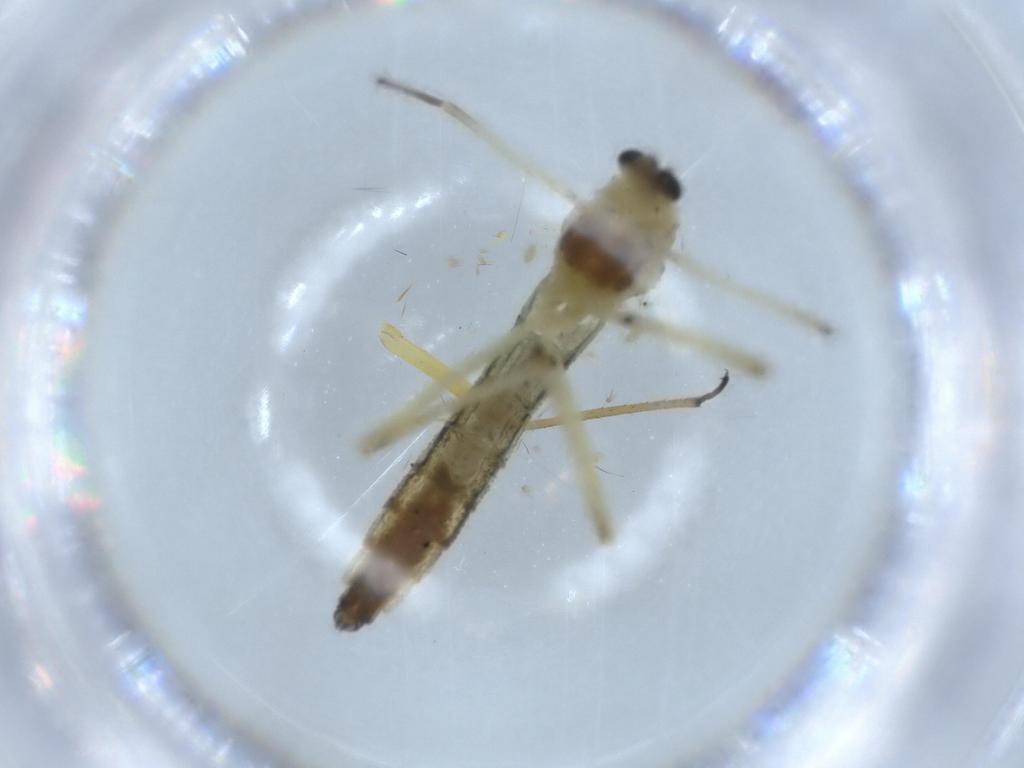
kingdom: Animalia
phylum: Arthropoda
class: Insecta
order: Diptera
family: Chironomidae
